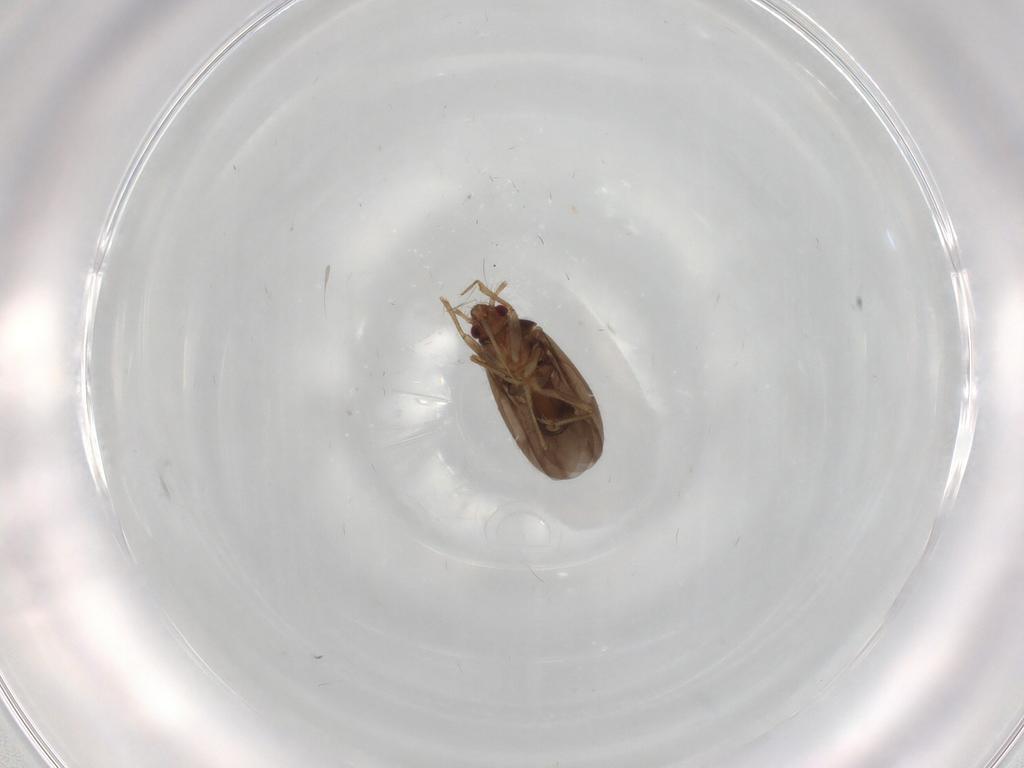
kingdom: Animalia
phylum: Arthropoda
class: Insecta
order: Hemiptera
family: Ceratocombidae
